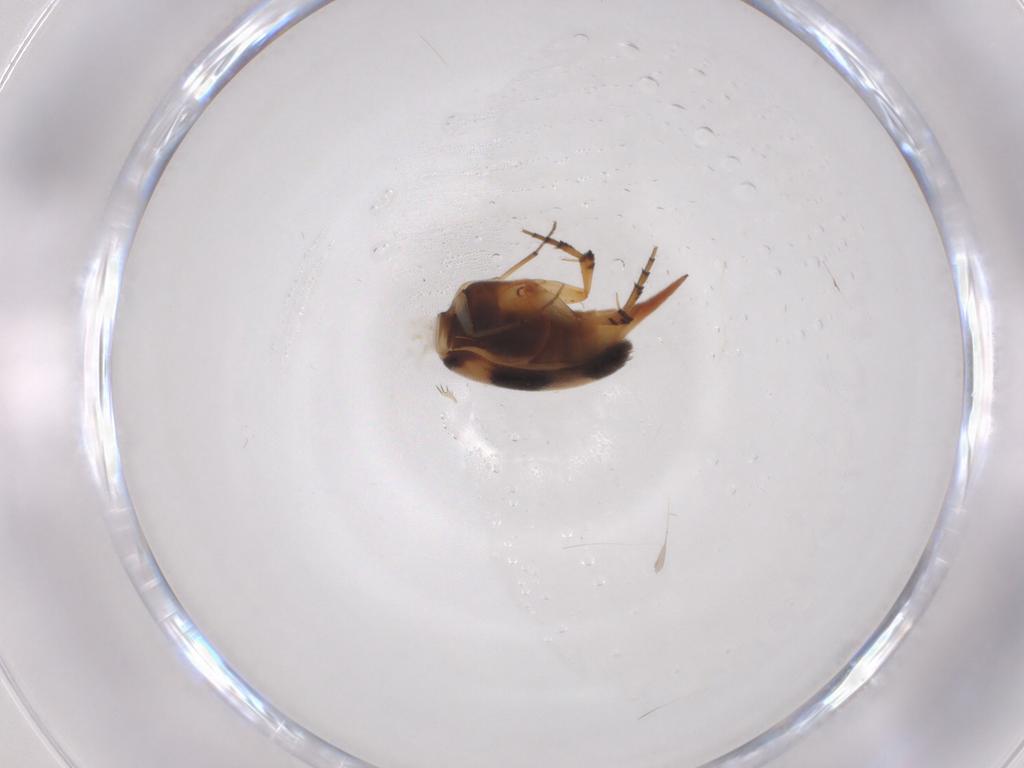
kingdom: Animalia
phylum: Arthropoda
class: Insecta
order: Coleoptera
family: Mordellidae
